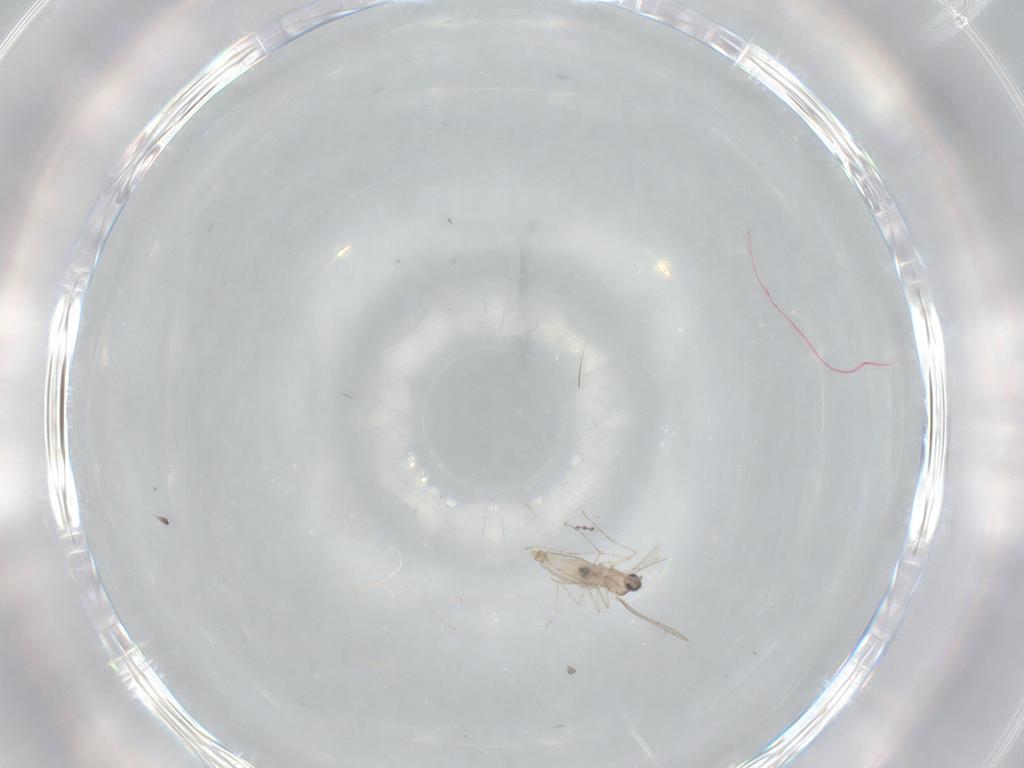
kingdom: Animalia
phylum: Arthropoda
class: Insecta
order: Diptera
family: Cecidomyiidae
